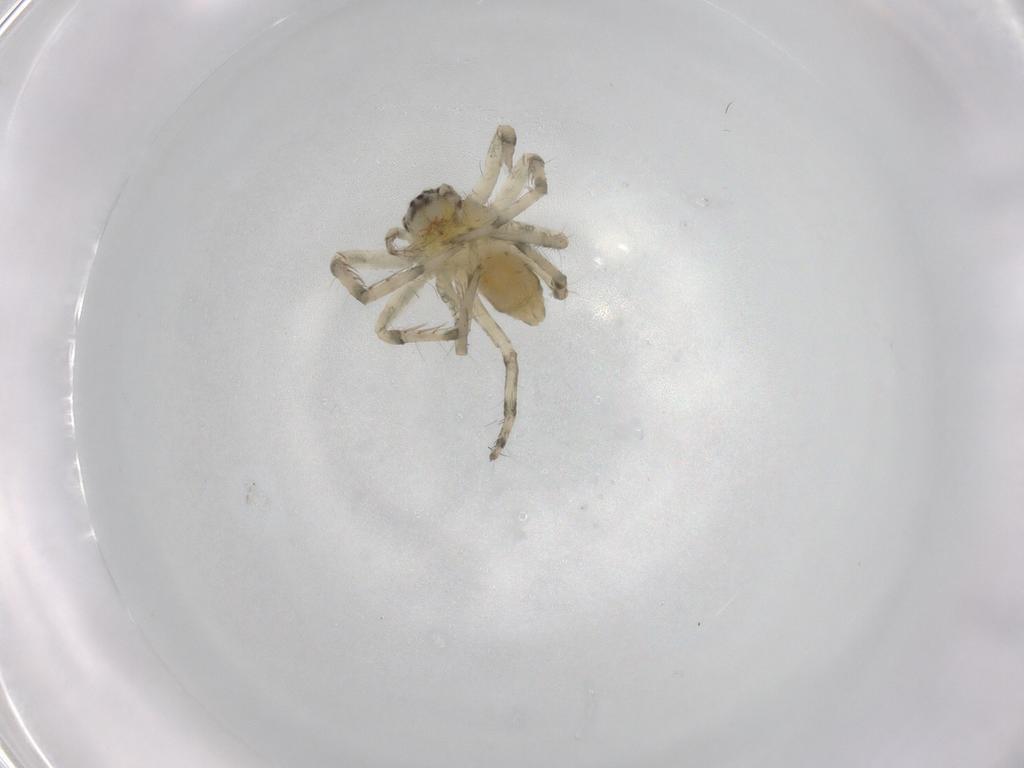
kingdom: Animalia
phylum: Arthropoda
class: Arachnida
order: Araneae
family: Senoculidae
